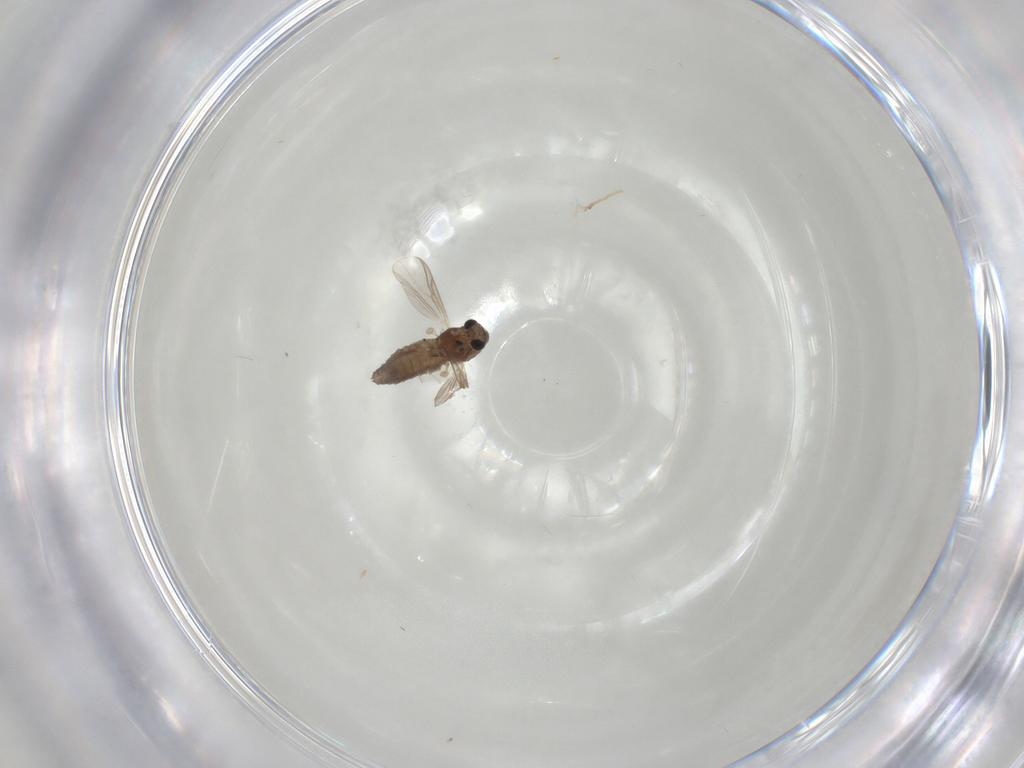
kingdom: Animalia
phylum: Arthropoda
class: Insecta
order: Diptera
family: Chironomidae
